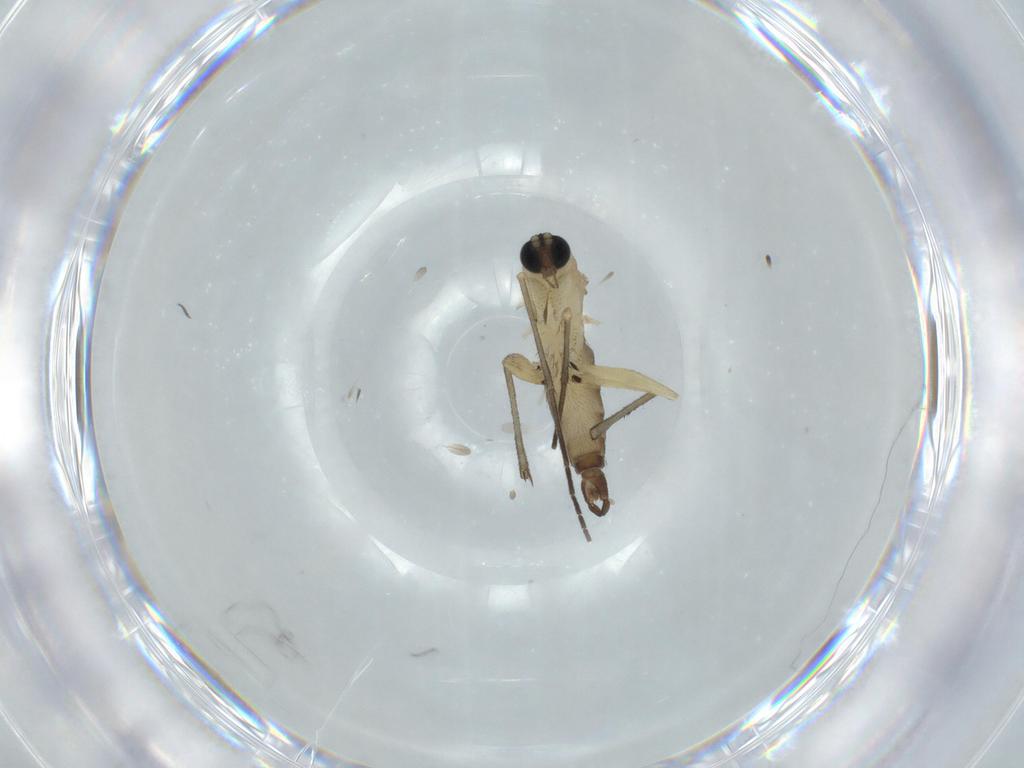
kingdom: Animalia
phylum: Arthropoda
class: Insecta
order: Diptera
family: Sciaridae
